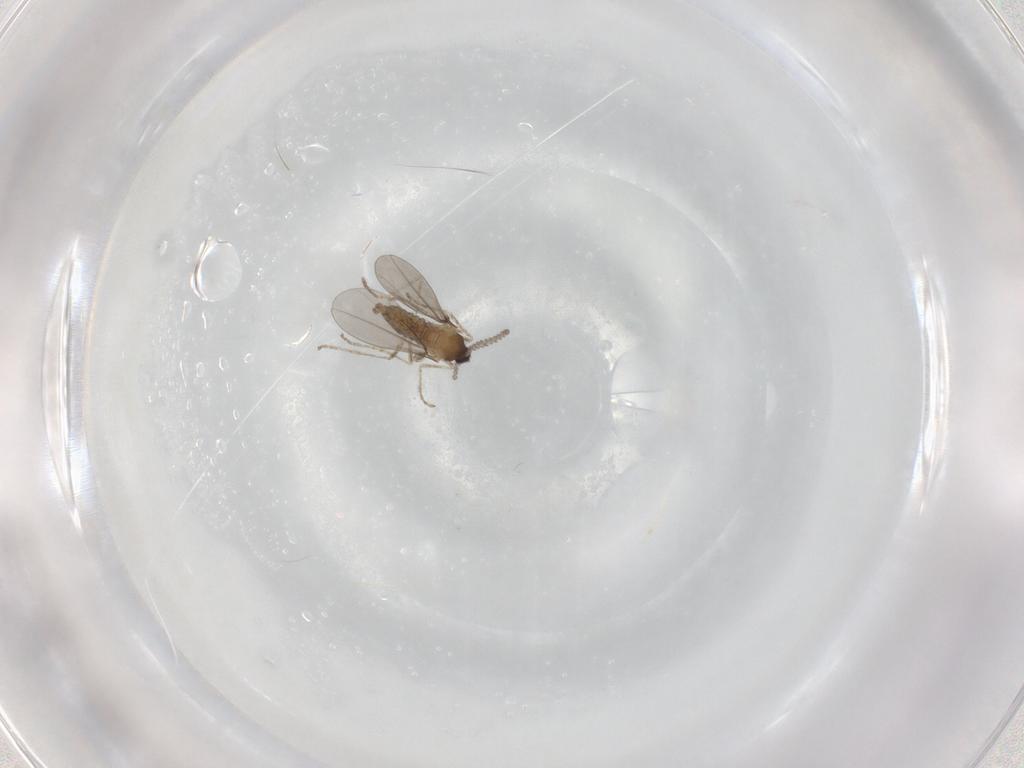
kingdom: Animalia
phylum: Arthropoda
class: Insecta
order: Diptera
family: Cecidomyiidae
